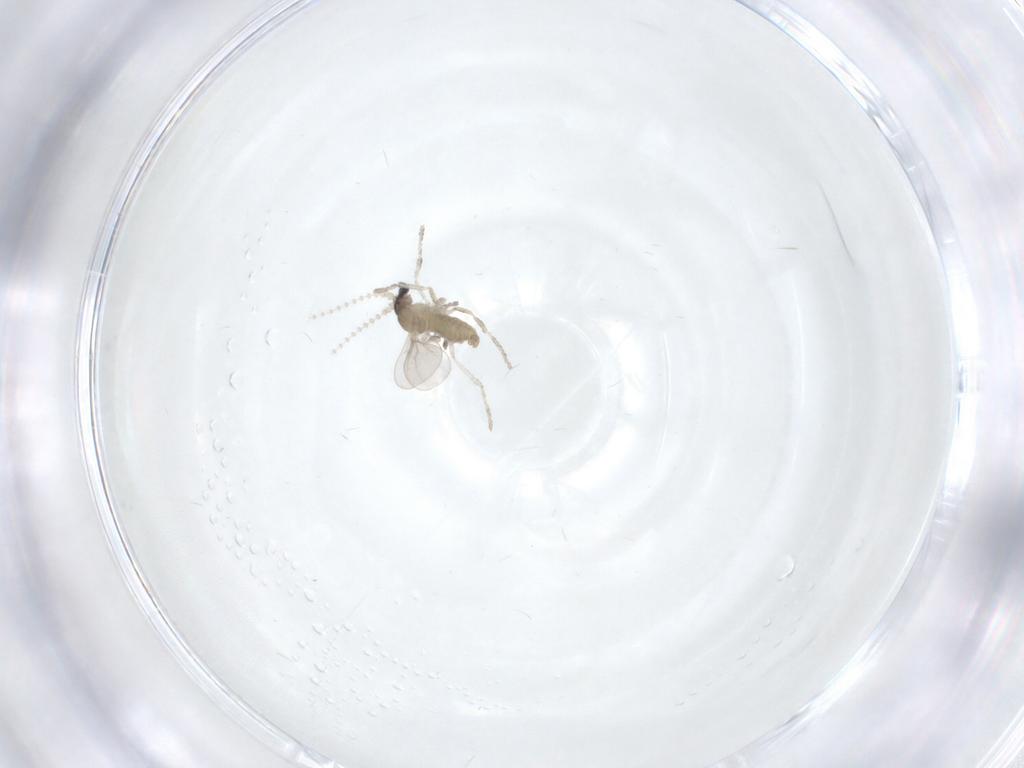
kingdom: Animalia
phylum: Arthropoda
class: Insecta
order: Diptera
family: Cecidomyiidae
